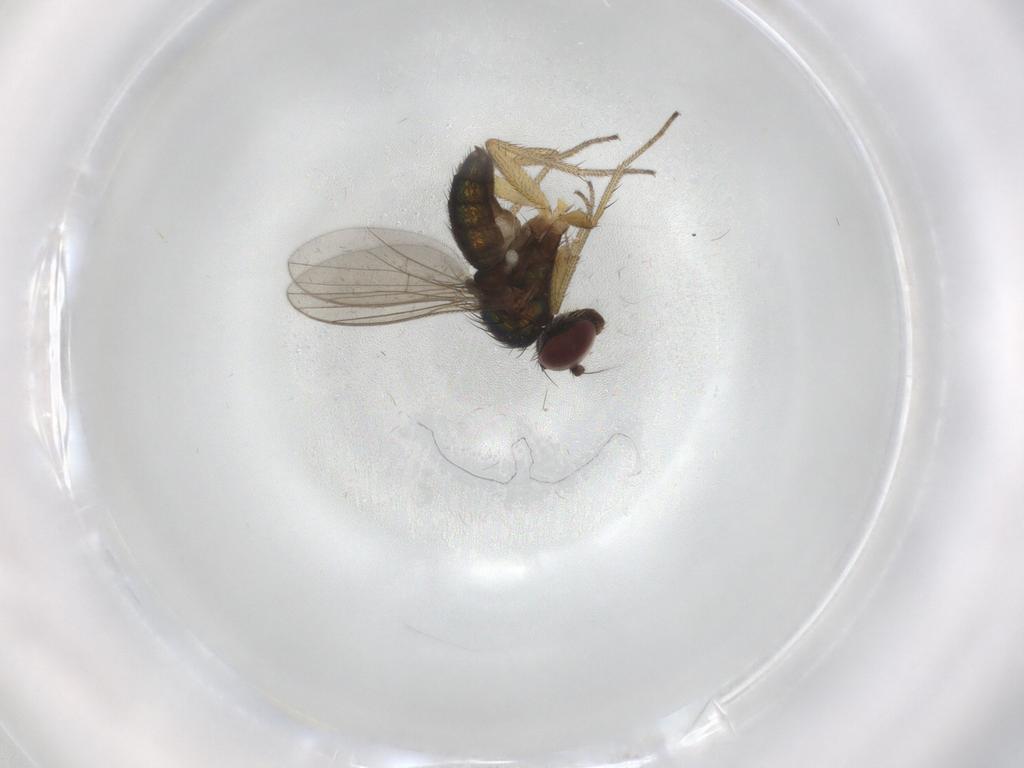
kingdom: Animalia
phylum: Arthropoda
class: Insecta
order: Diptera
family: Dolichopodidae
